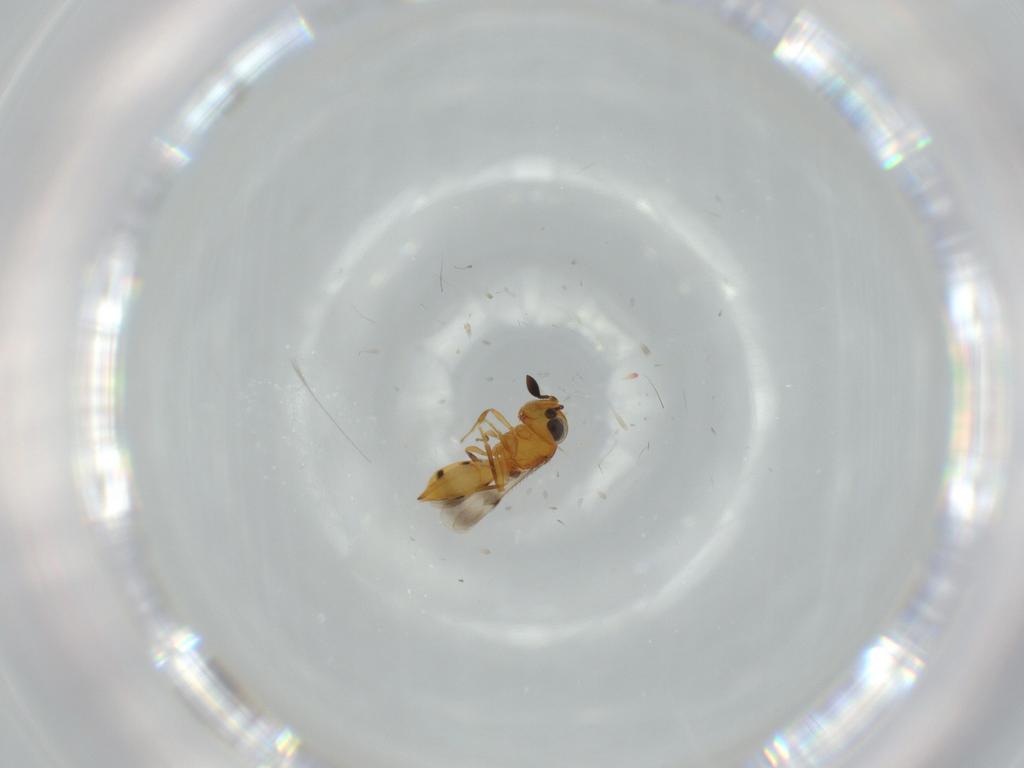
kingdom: Animalia
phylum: Arthropoda
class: Insecta
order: Hymenoptera
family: Scelionidae
